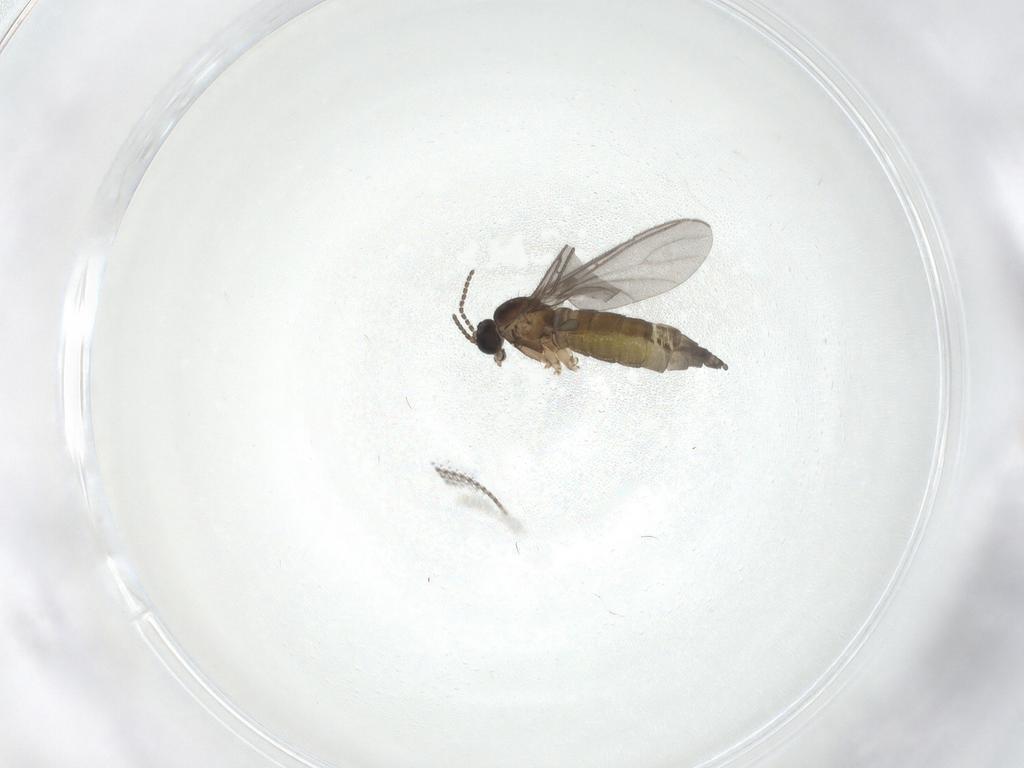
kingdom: Animalia
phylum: Arthropoda
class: Insecta
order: Diptera
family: Sciaridae
